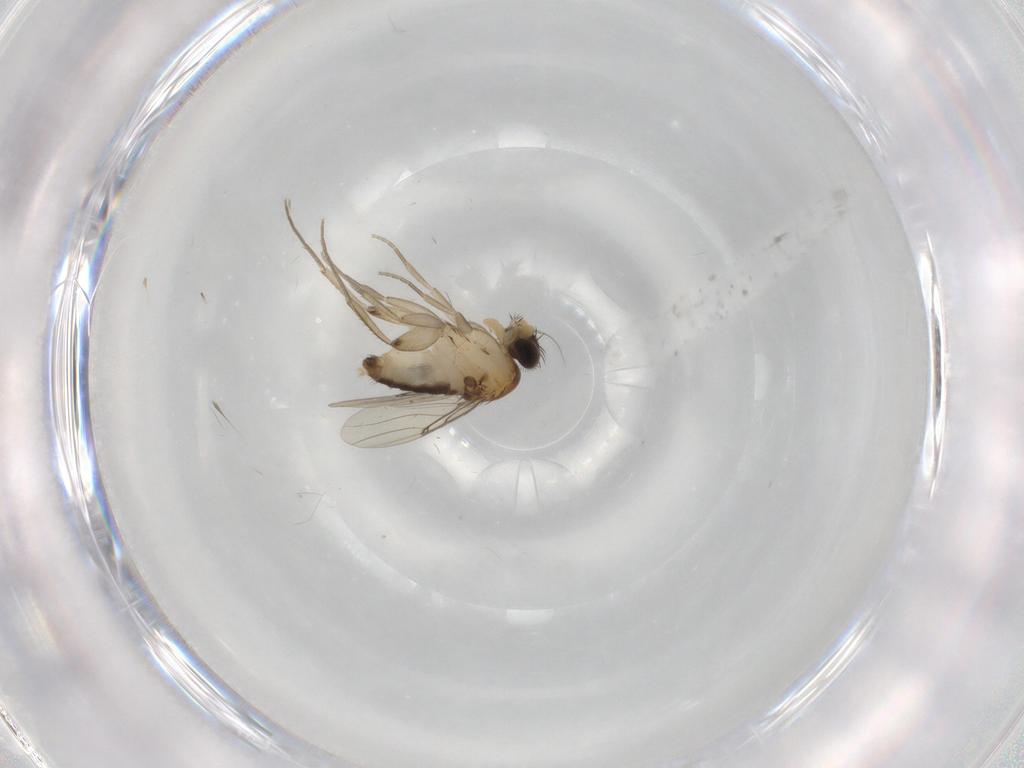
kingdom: Animalia
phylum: Arthropoda
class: Insecta
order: Diptera
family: Phoridae
